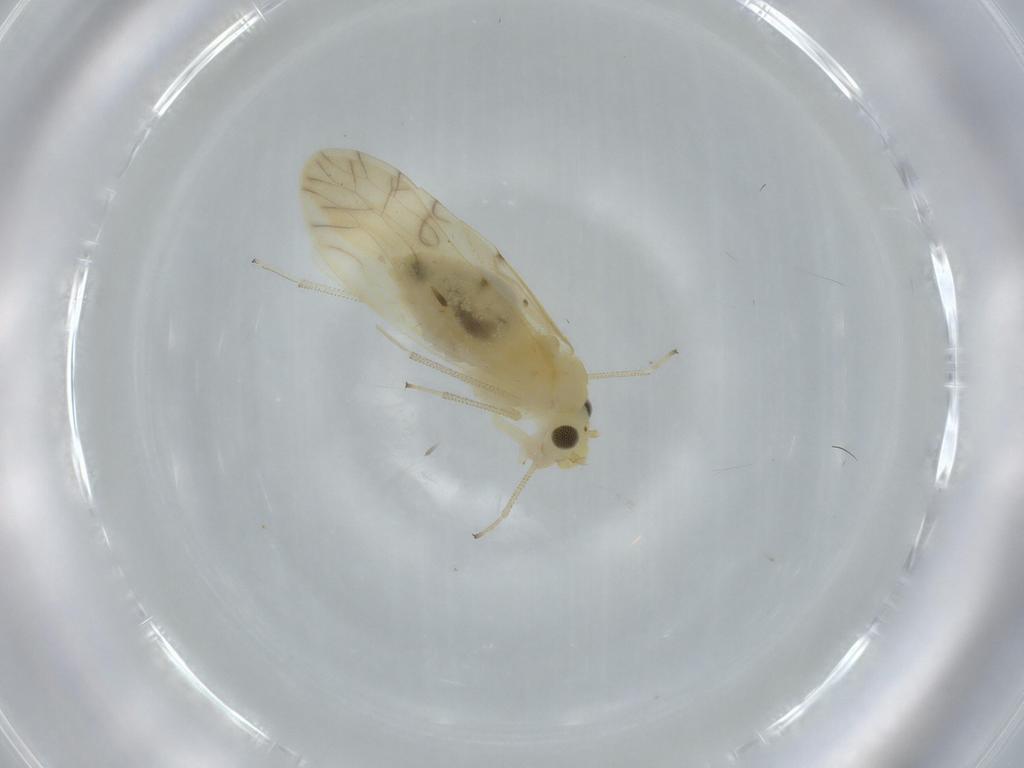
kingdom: Animalia
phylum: Arthropoda
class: Insecta
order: Psocodea
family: Caeciliusidae
